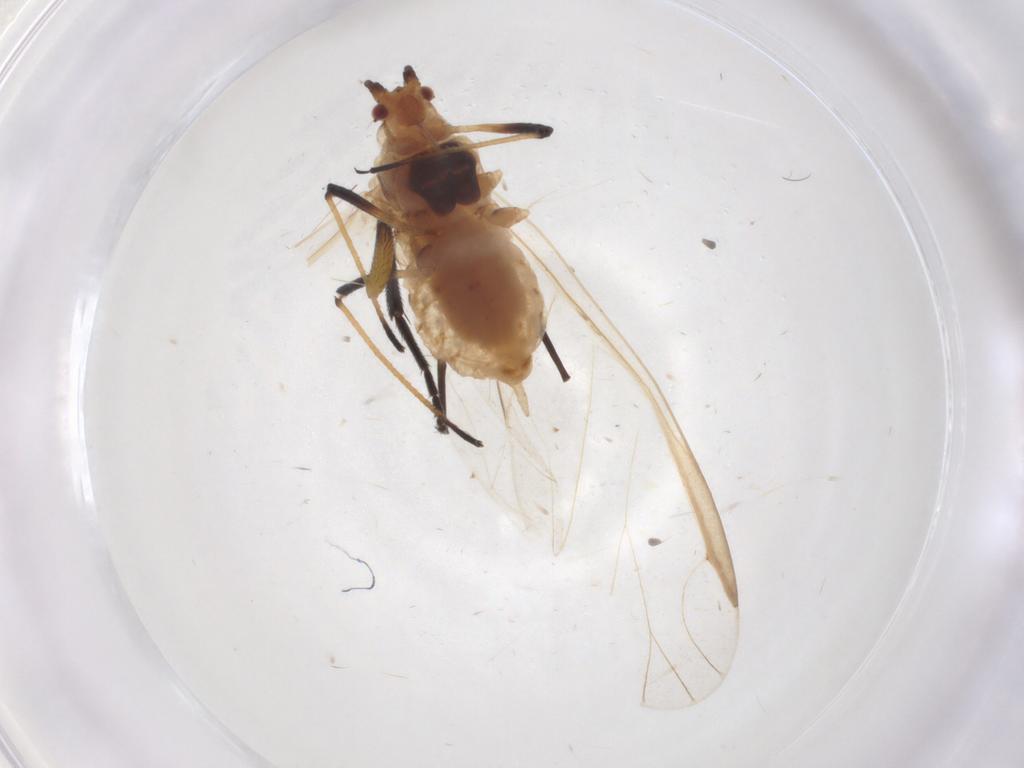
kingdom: Animalia
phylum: Arthropoda
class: Insecta
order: Hemiptera
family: Aphididae
